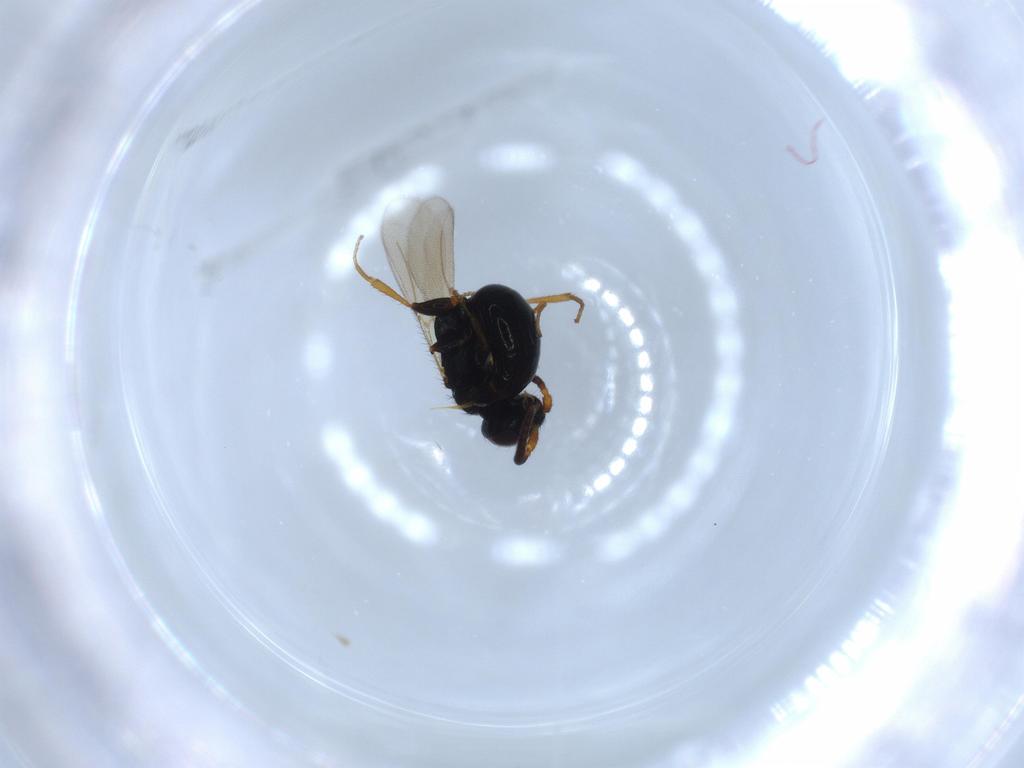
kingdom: Animalia
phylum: Arthropoda
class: Insecta
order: Hymenoptera
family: Bethylidae
